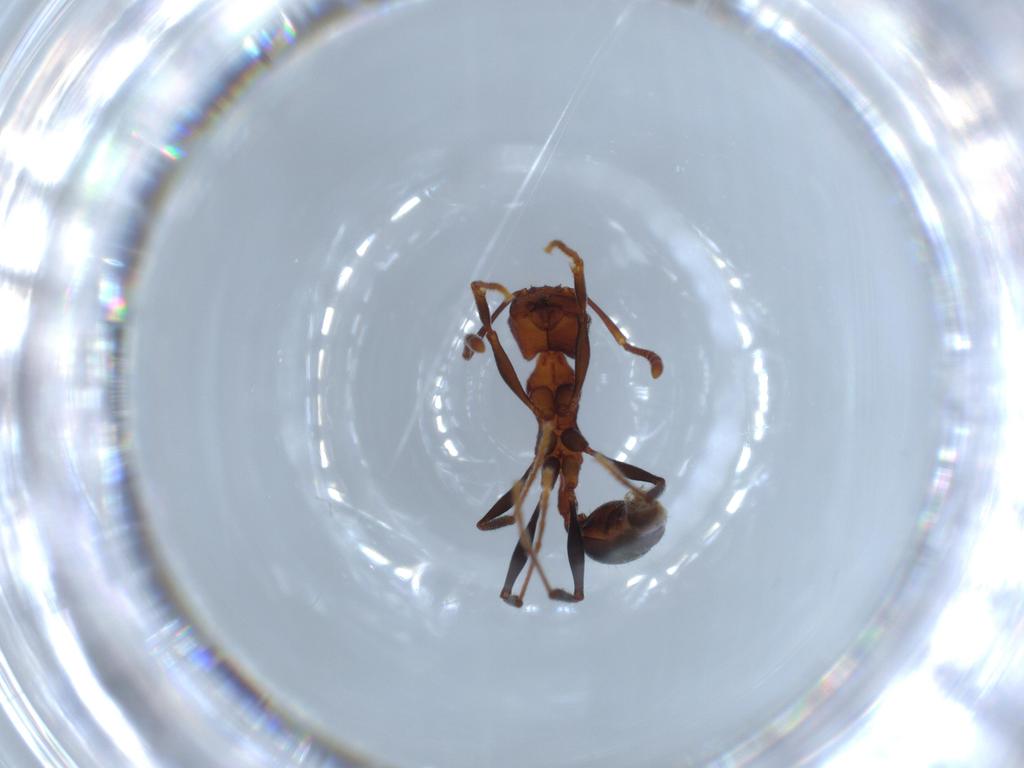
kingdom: Animalia
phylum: Arthropoda
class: Insecta
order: Hymenoptera
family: Formicidae
